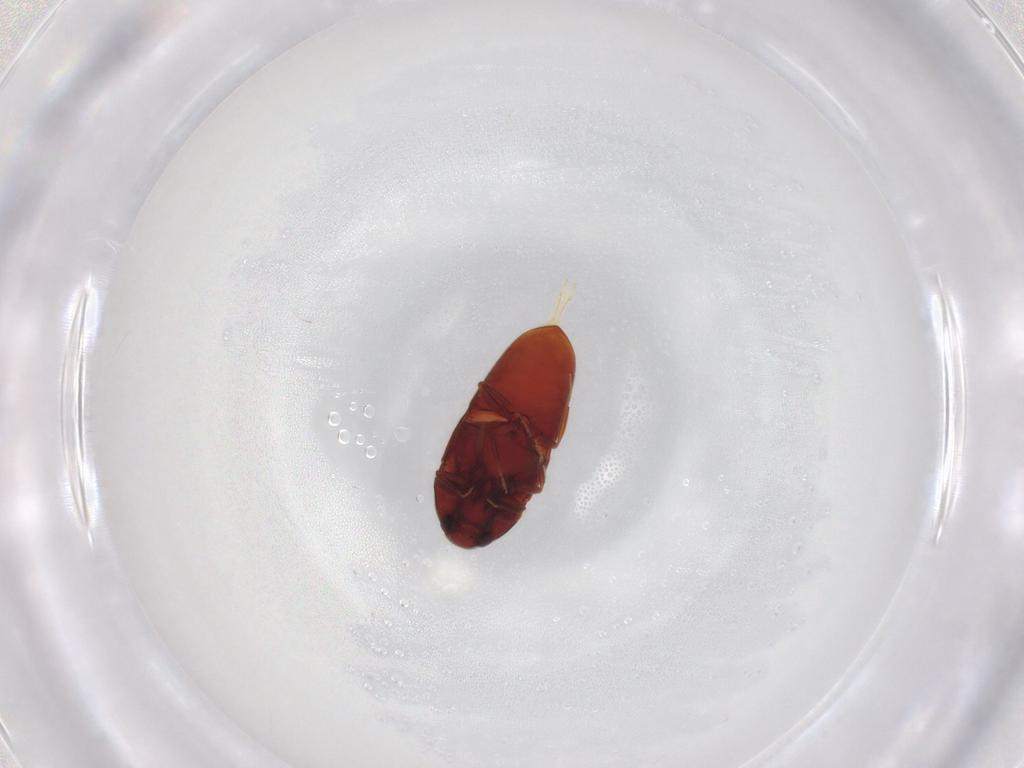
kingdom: Animalia
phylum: Arthropoda
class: Insecta
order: Coleoptera
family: Throscidae
